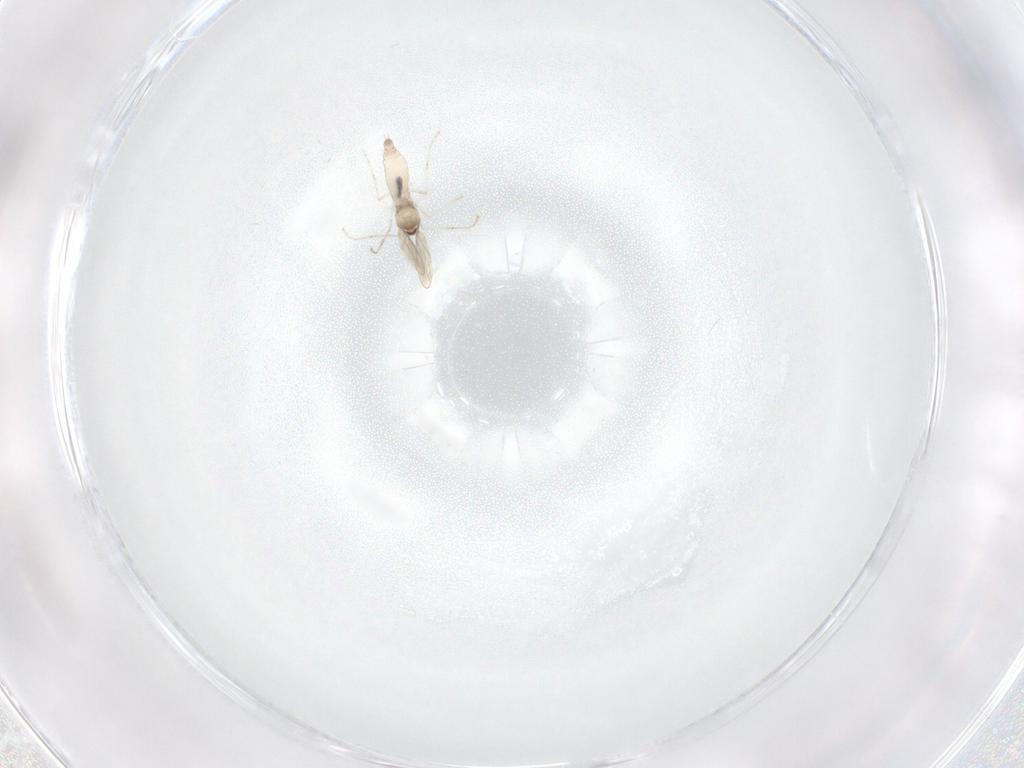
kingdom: Animalia
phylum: Arthropoda
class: Insecta
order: Diptera
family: Cecidomyiidae
